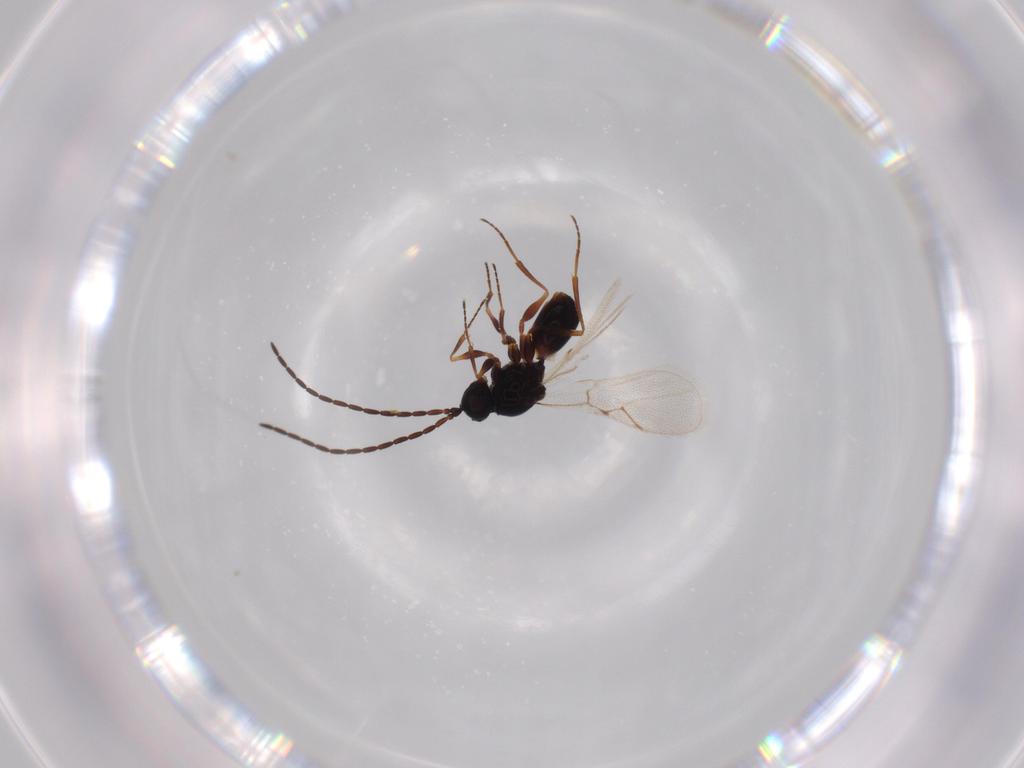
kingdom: Animalia
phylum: Arthropoda
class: Insecta
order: Hymenoptera
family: Figitidae
